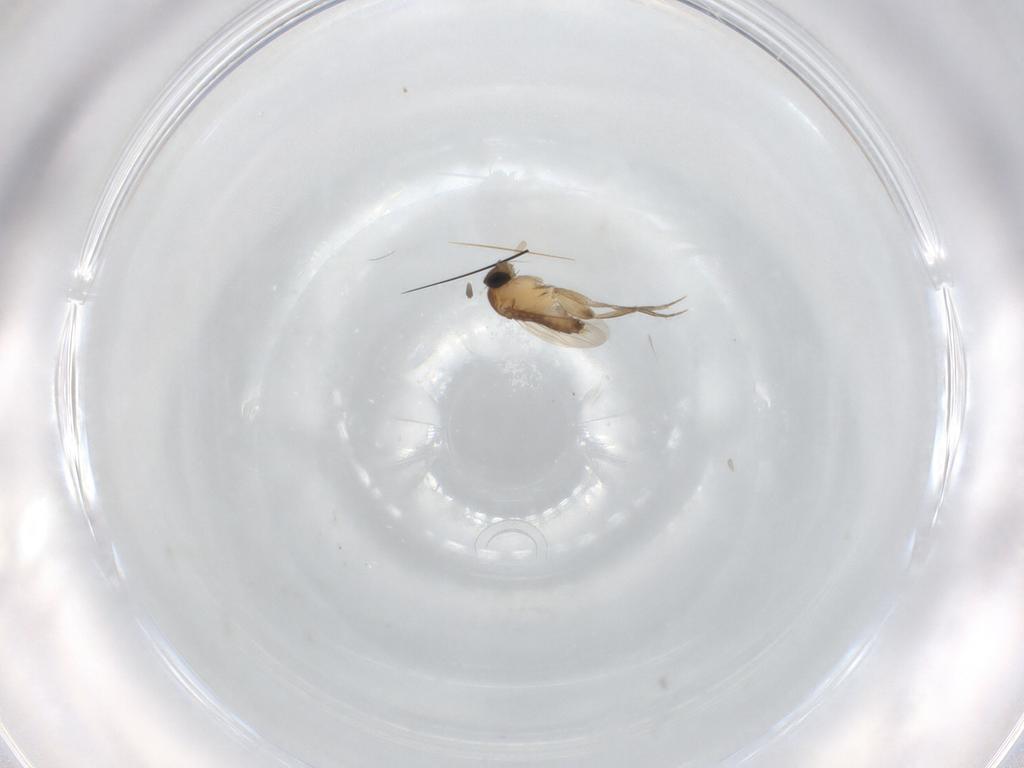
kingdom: Animalia
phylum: Arthropoda
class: Insecta
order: Diptera
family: Phoridae
